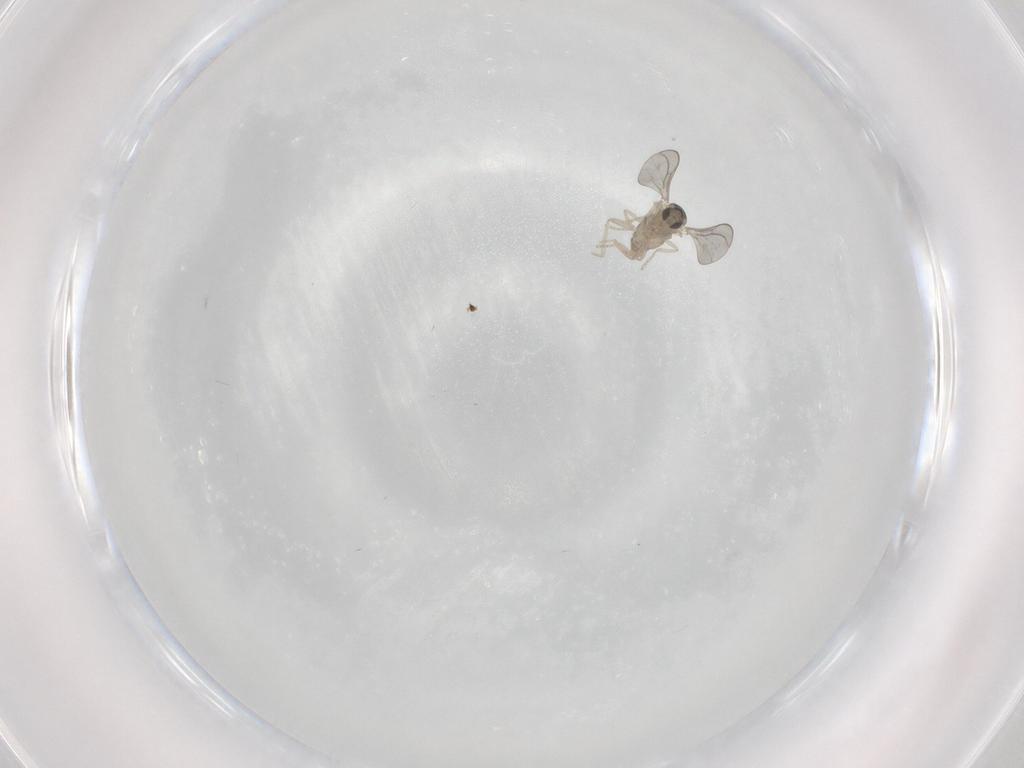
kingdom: Animalia
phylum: Arthropoda
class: Insecta
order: Diptera
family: Cecidomyiidae
